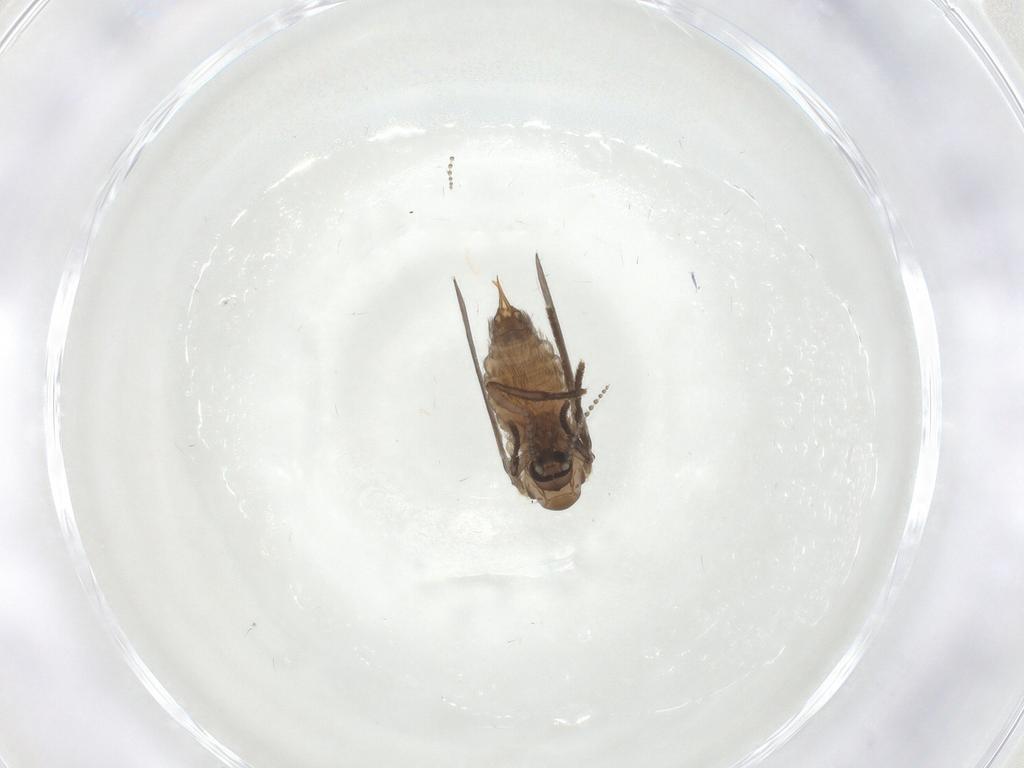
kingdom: Animalia
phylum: Arthropoda
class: Insecta
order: Diptera
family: Psychodidae
